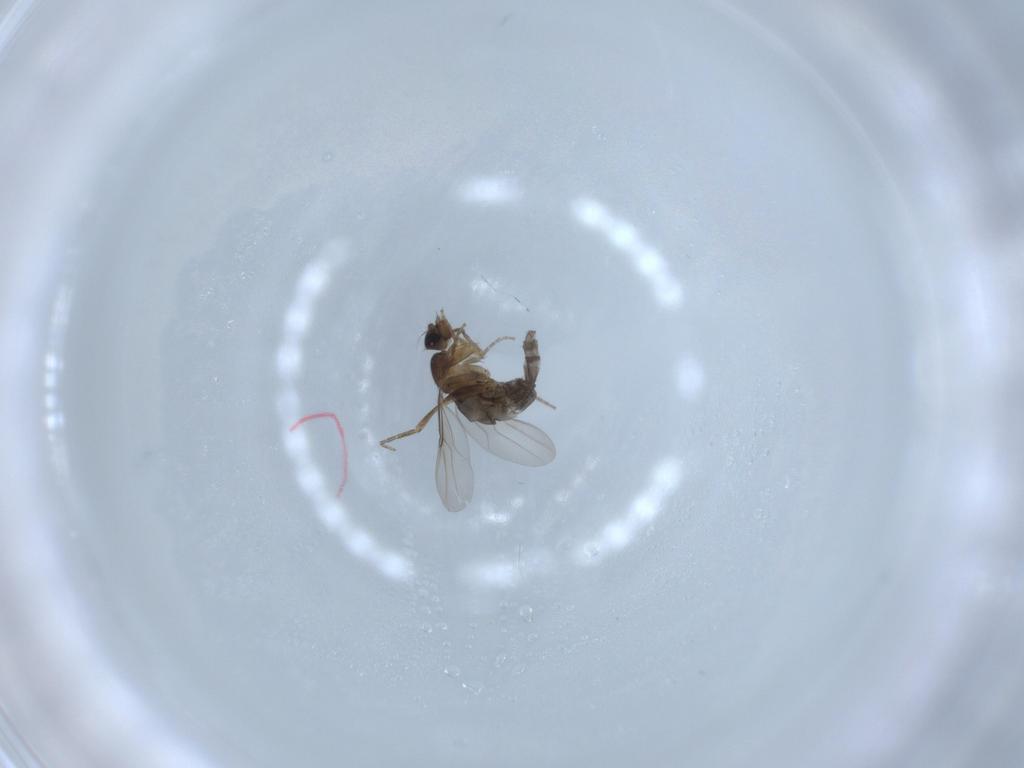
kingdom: Animalia
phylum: Arthropoda
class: Insecta
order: Diptera
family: Phoridae
